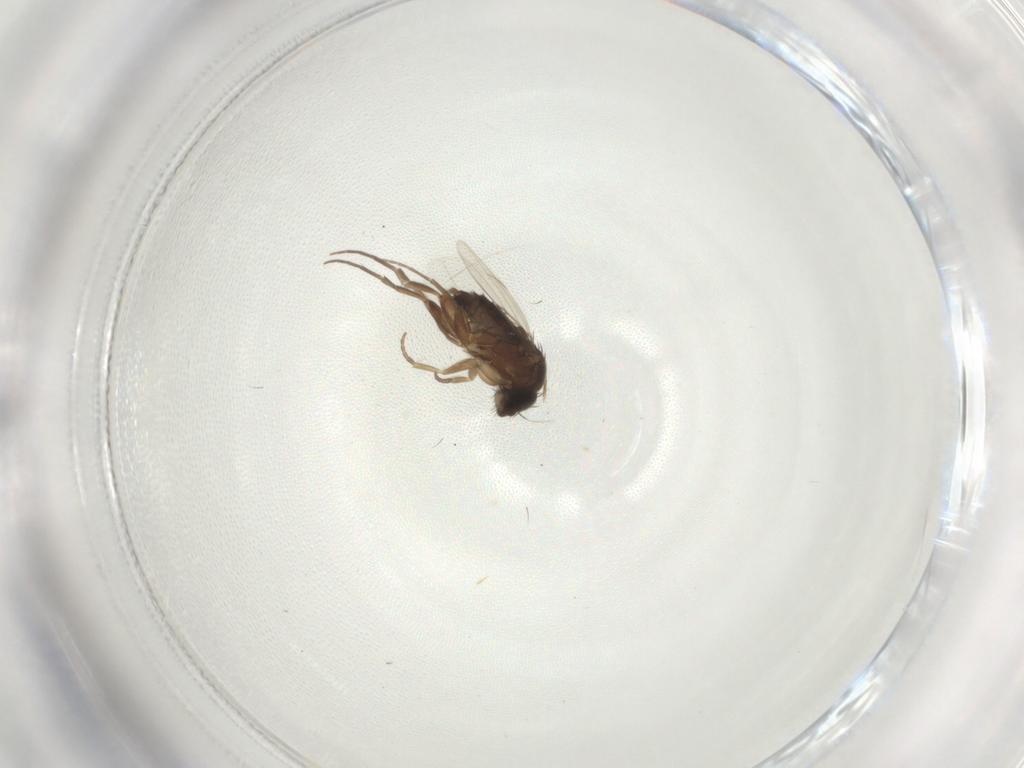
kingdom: Animalia
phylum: Arthropoda
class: Insecta
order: Diptera
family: Phoridae
